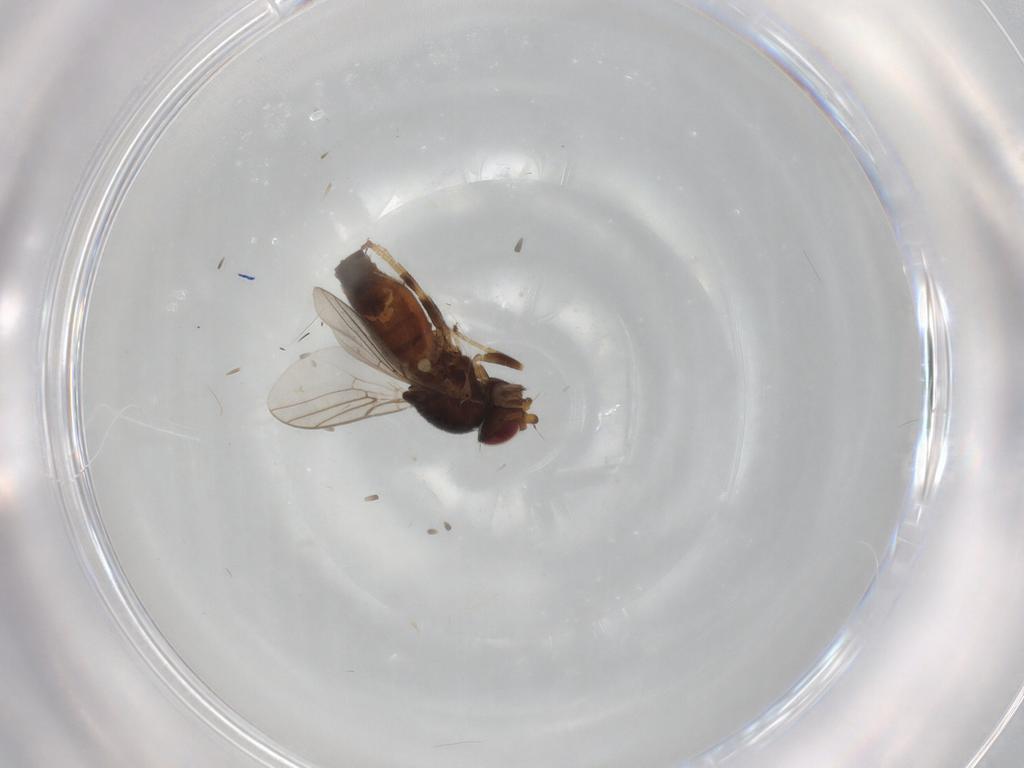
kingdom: Animalia
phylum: Arthropoda
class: Insecta
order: Diptera
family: Chloropidae
